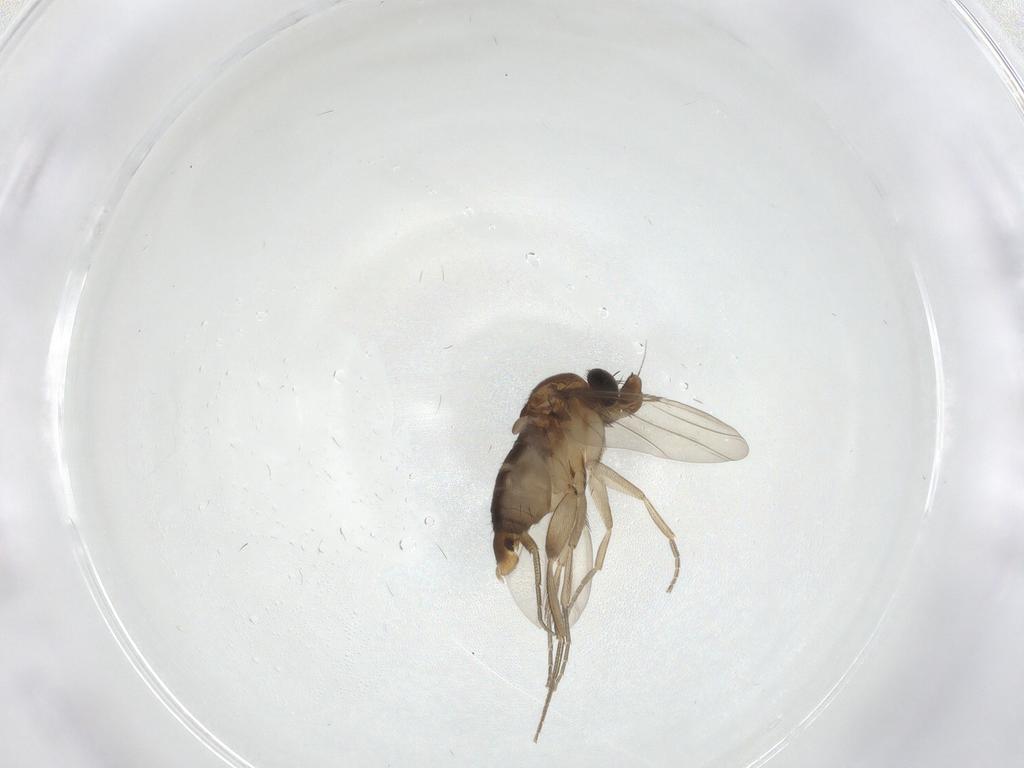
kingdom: Animalia
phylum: Arthropoda
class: Insecta
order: Diptera
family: Phoridae
